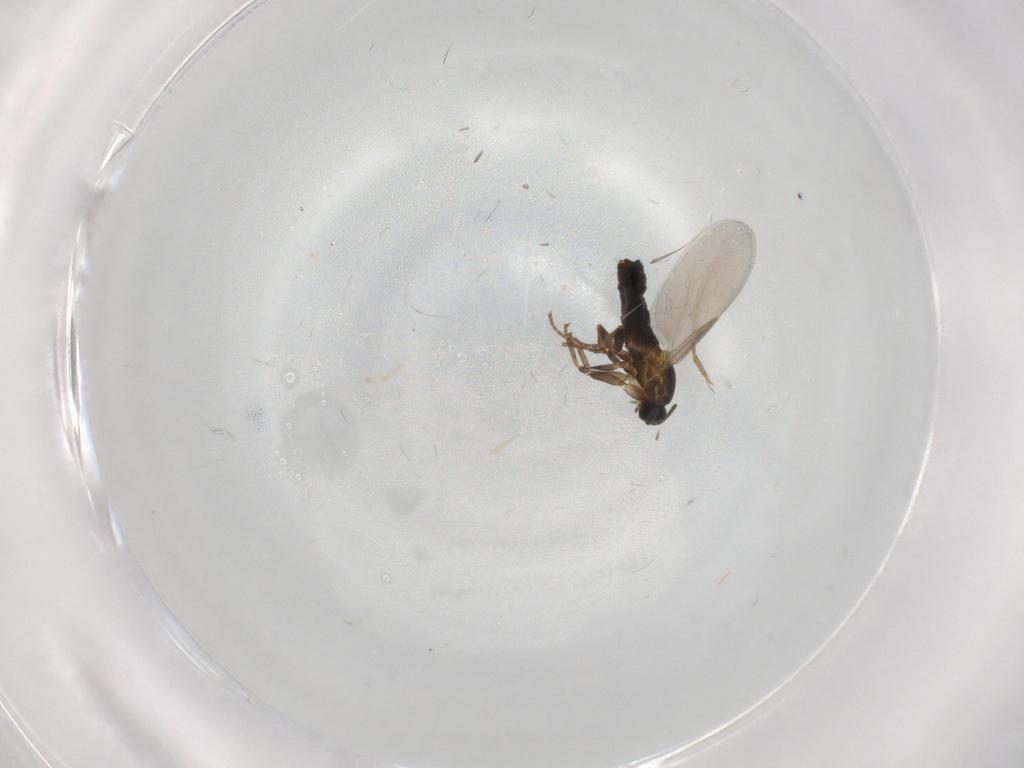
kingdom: Animalia
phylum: Arthropoda
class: Insecta
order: Diptera
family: Scatopsidae
